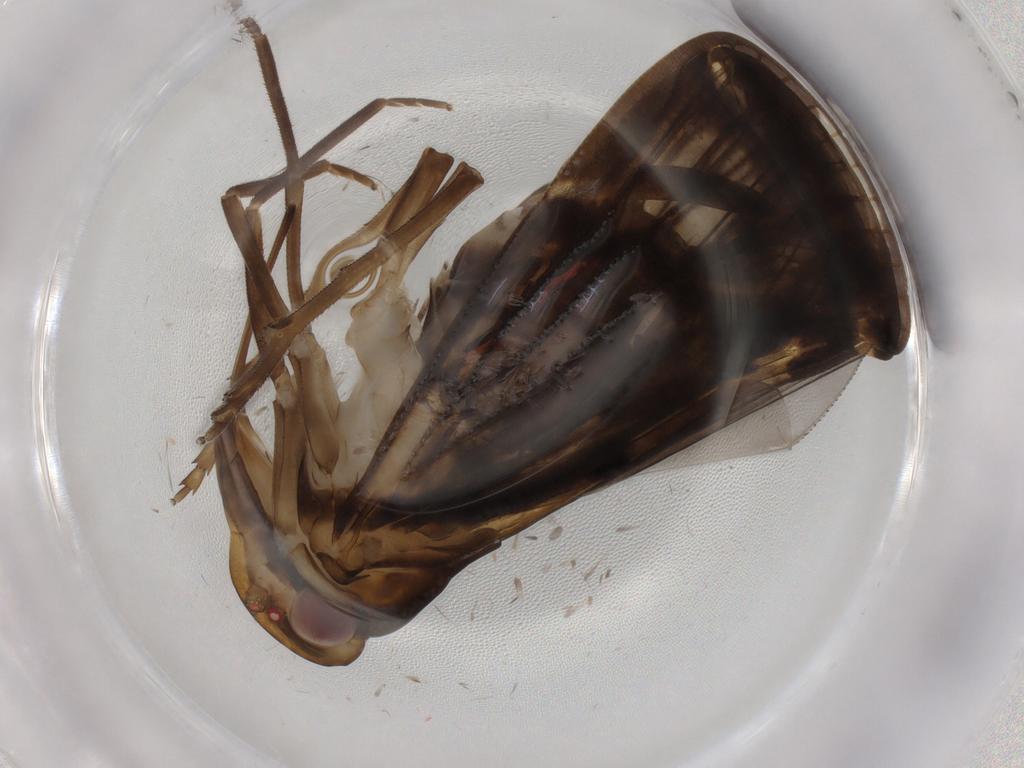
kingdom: Animalia
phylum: Arthropoda
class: Insecta
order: Hemiptera
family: Cixiidae
